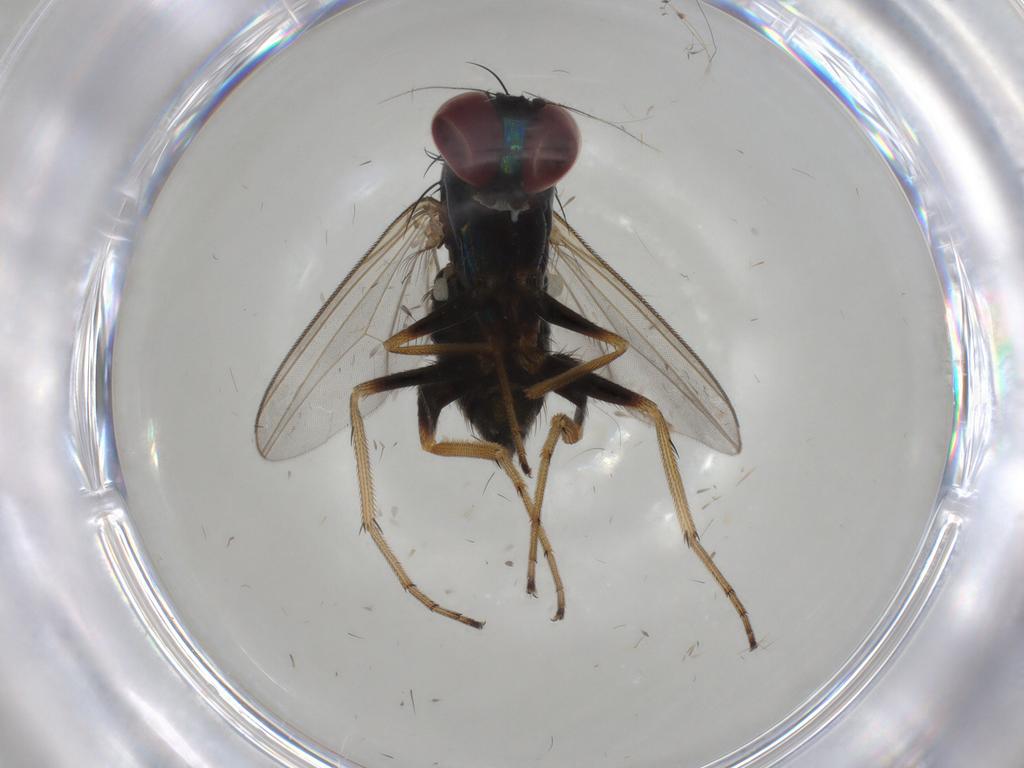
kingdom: Animalia
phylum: Arthropoda
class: Insecta
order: Diptera
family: Dolichopodidae
